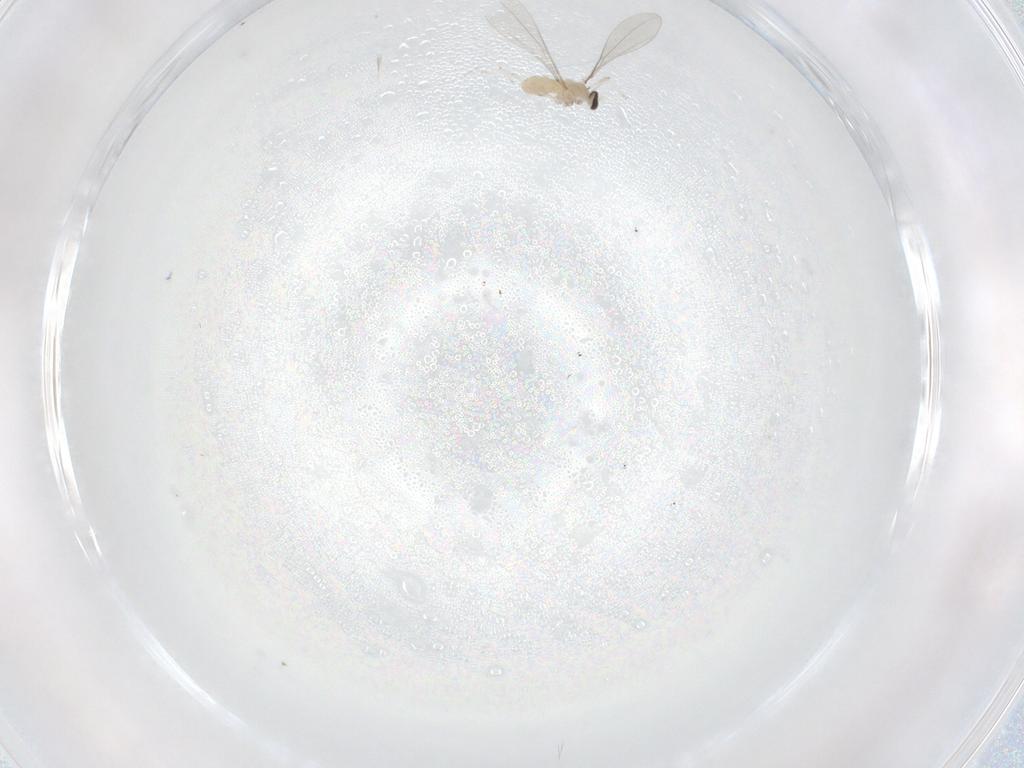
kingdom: Animalia
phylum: Arthropoda
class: Insecta
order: Diptera
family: Cecidomyiidae
